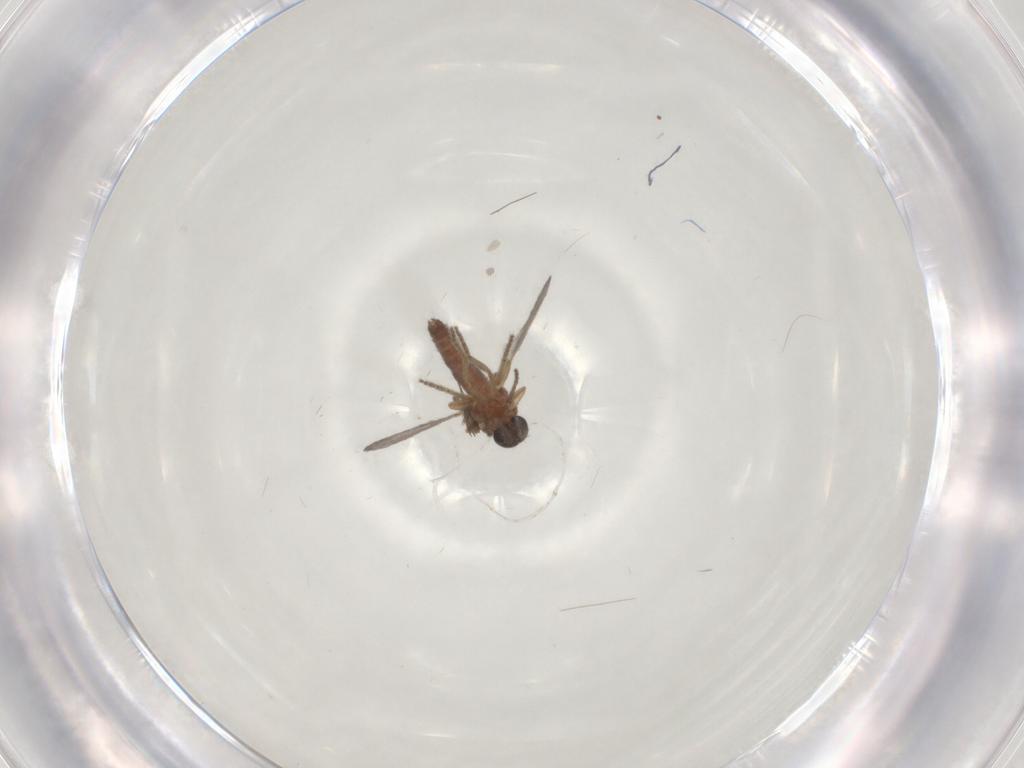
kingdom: Animalia
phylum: Arthropoda
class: Insecta
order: Diptera
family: Ceratopogonidae
